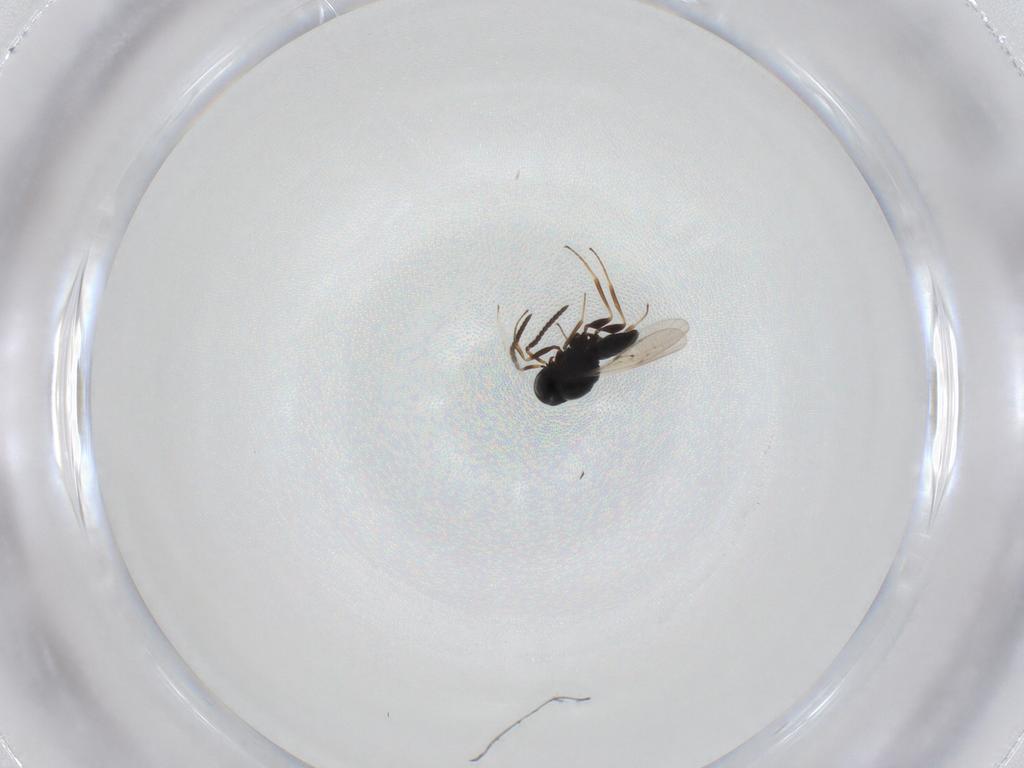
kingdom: Animalia
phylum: Arthropoda
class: Insecta
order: Hymenoptera
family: Scelionidae
